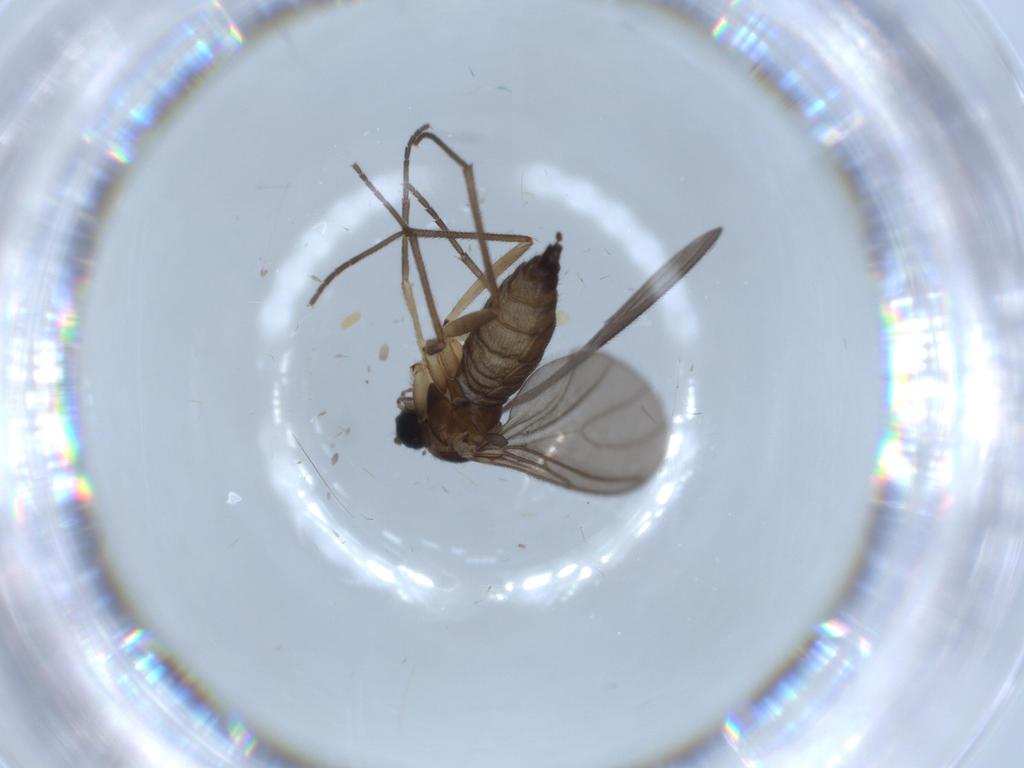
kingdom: Animalia
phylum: Arthropoda
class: Insecta
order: Diptera
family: Sciaridae
